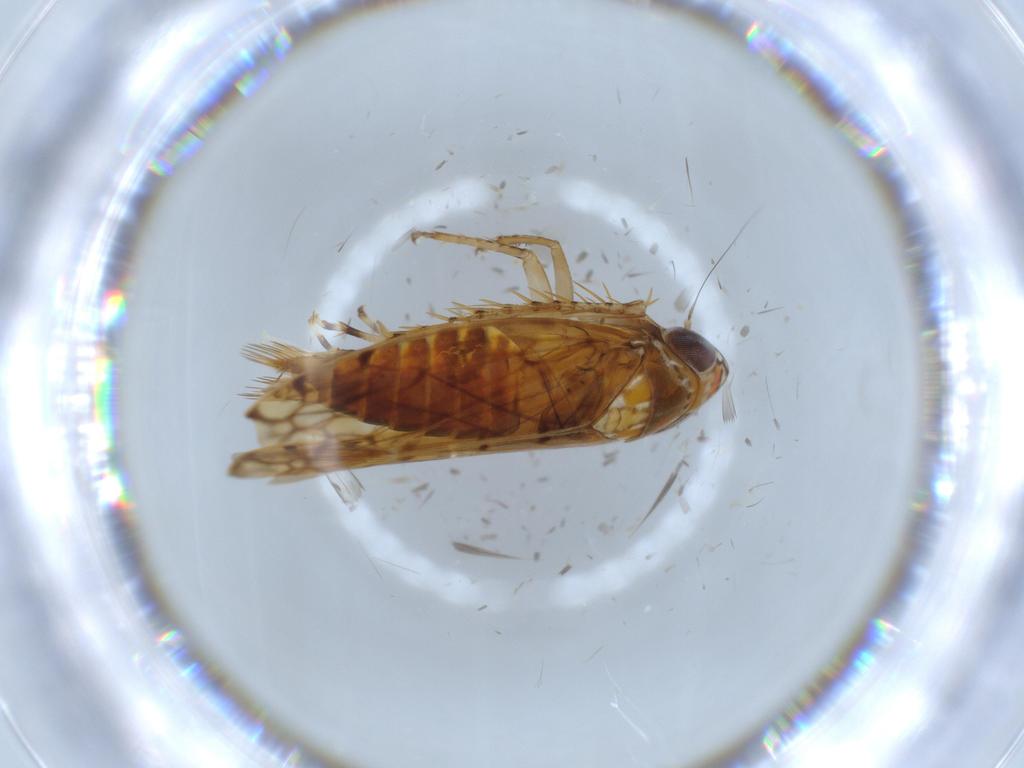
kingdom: Animalia
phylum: Arthropoda
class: Insecta
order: Hemiptera
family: Cicadellidae
